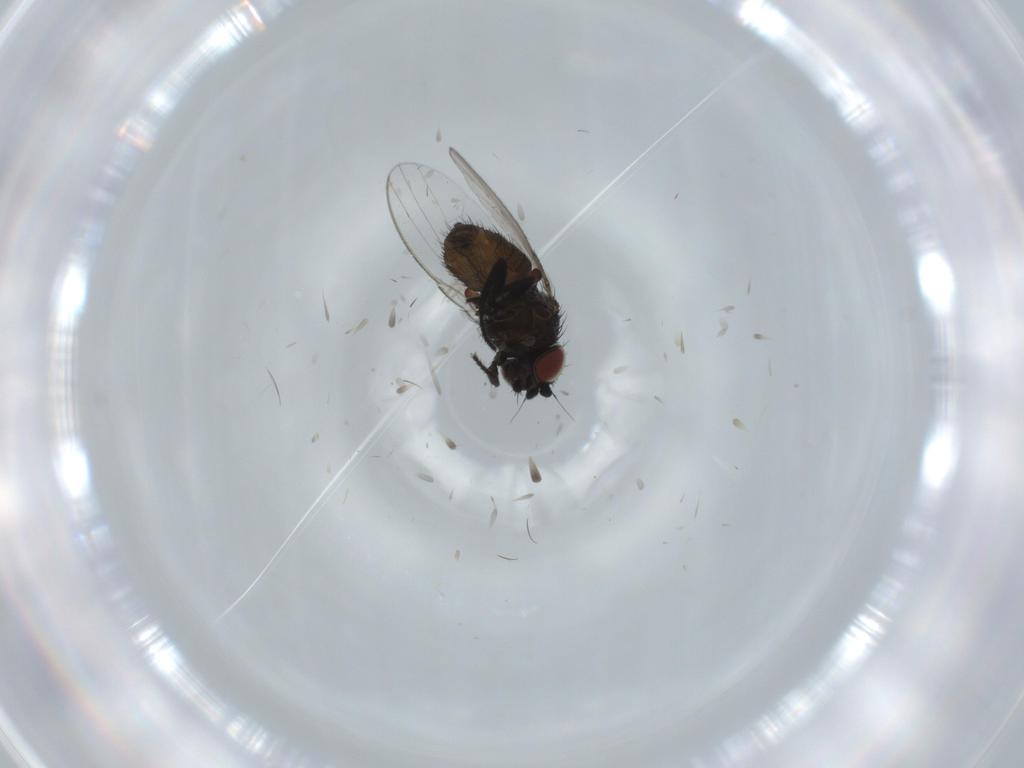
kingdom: Animalia
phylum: Arthropoda
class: Insecta
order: Diptera
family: Milichiidae
